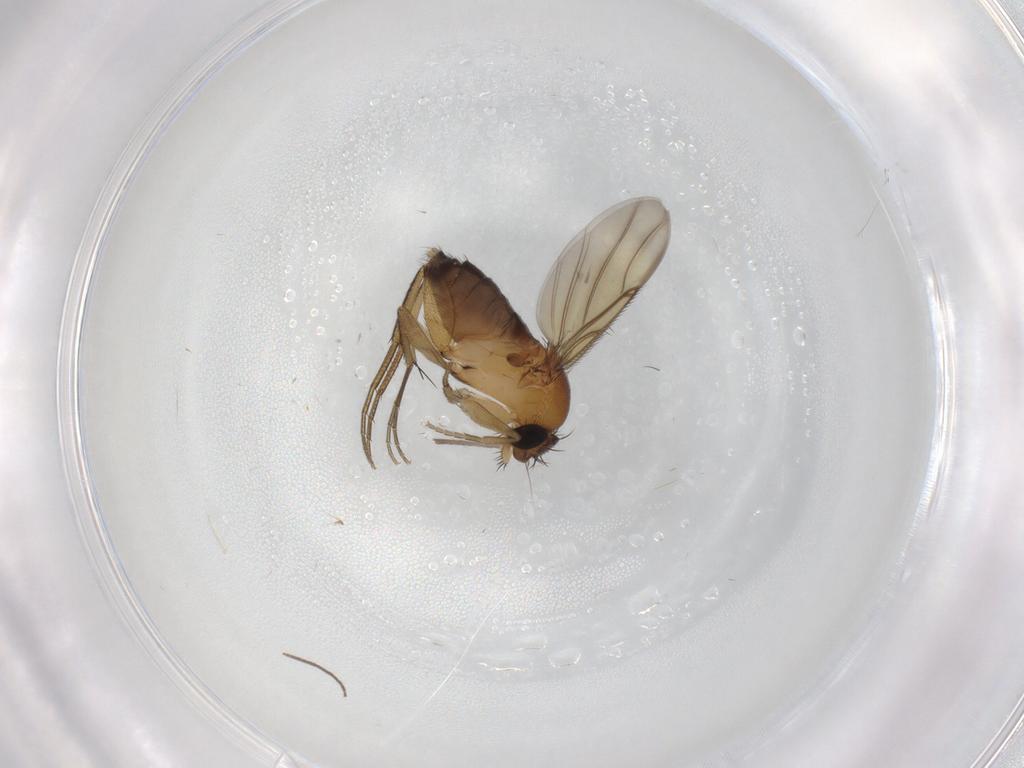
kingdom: Animalia
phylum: Arthropoda
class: Insecta
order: Diptera
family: Chironomidae
